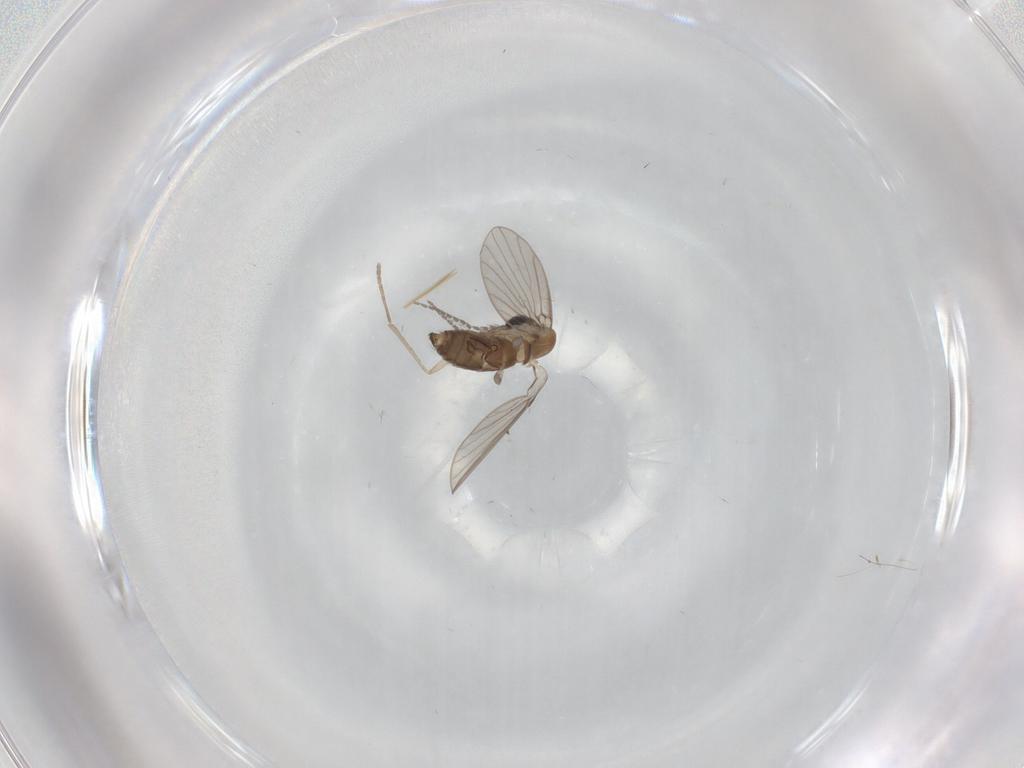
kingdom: Animalia
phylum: Arthropoda
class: Insecta
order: Diptera
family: Psychodidae
